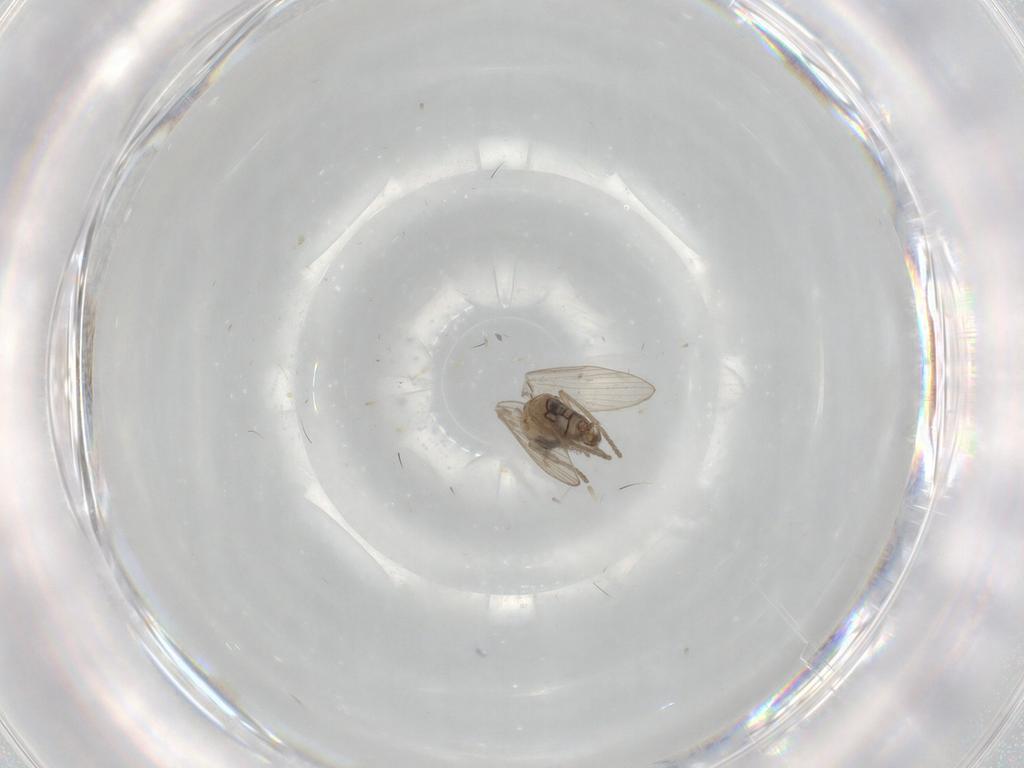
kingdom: Animalia
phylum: Arthropoda
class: Insecta
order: Diptera
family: Psychodidae
